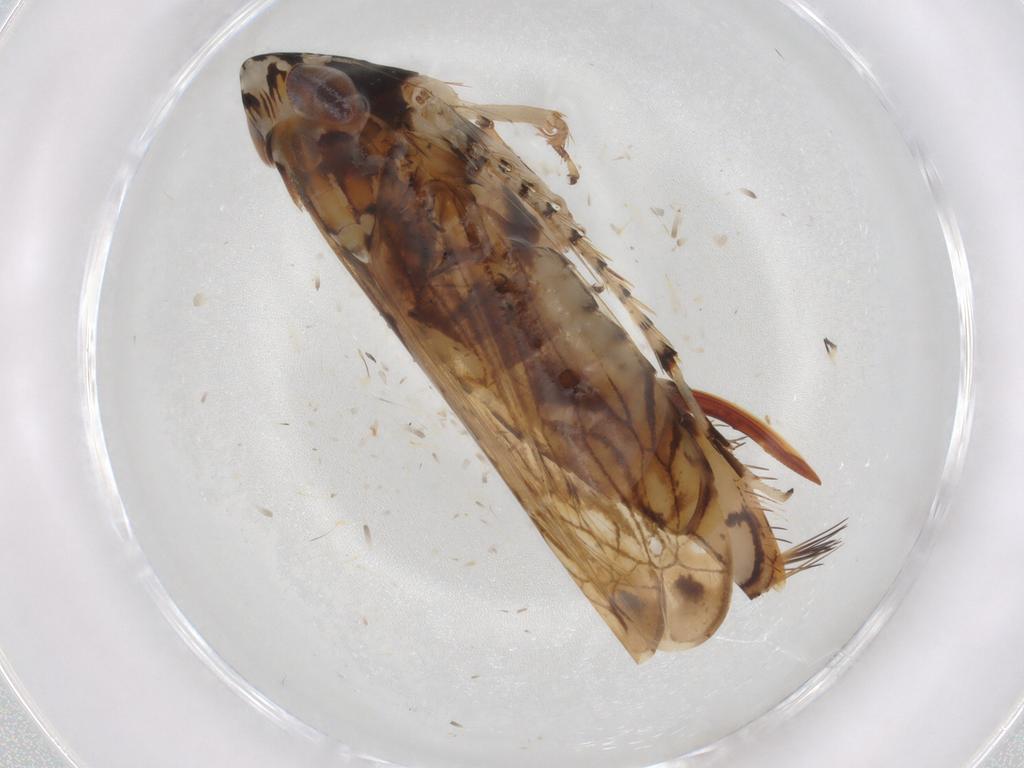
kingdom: Animalia
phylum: Arthropoda
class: Insecta
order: Hemiptera
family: Cicadellidae
